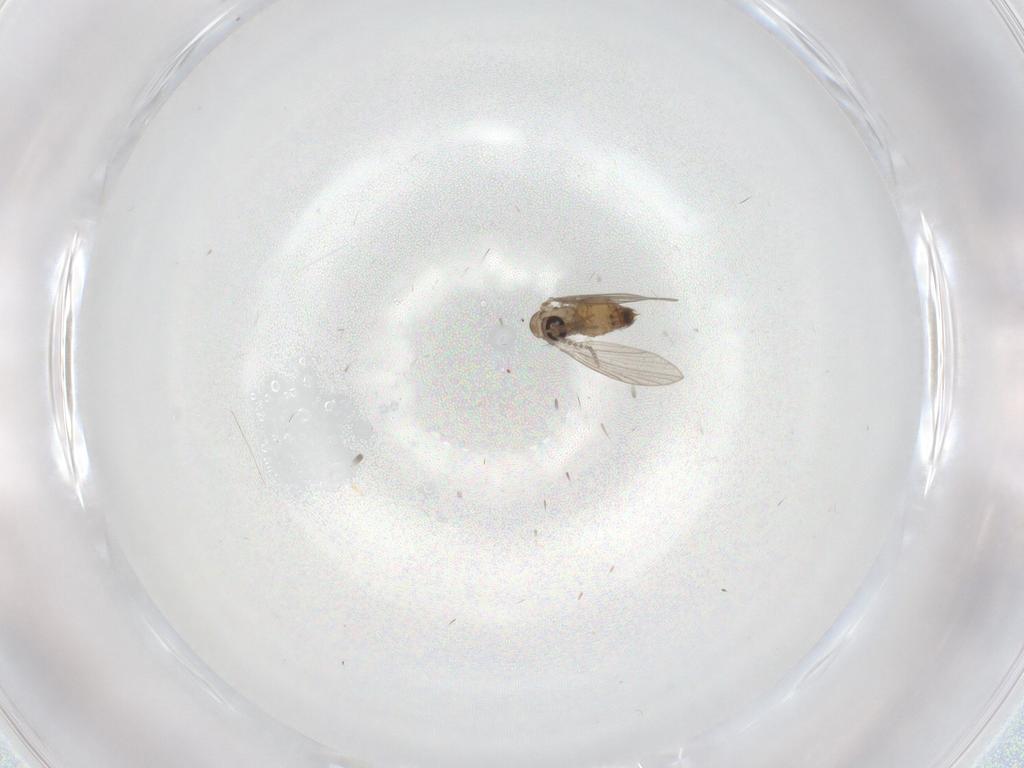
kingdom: Animalia
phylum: Arthropoda
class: Insecta
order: Diptera
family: Psychodidae
